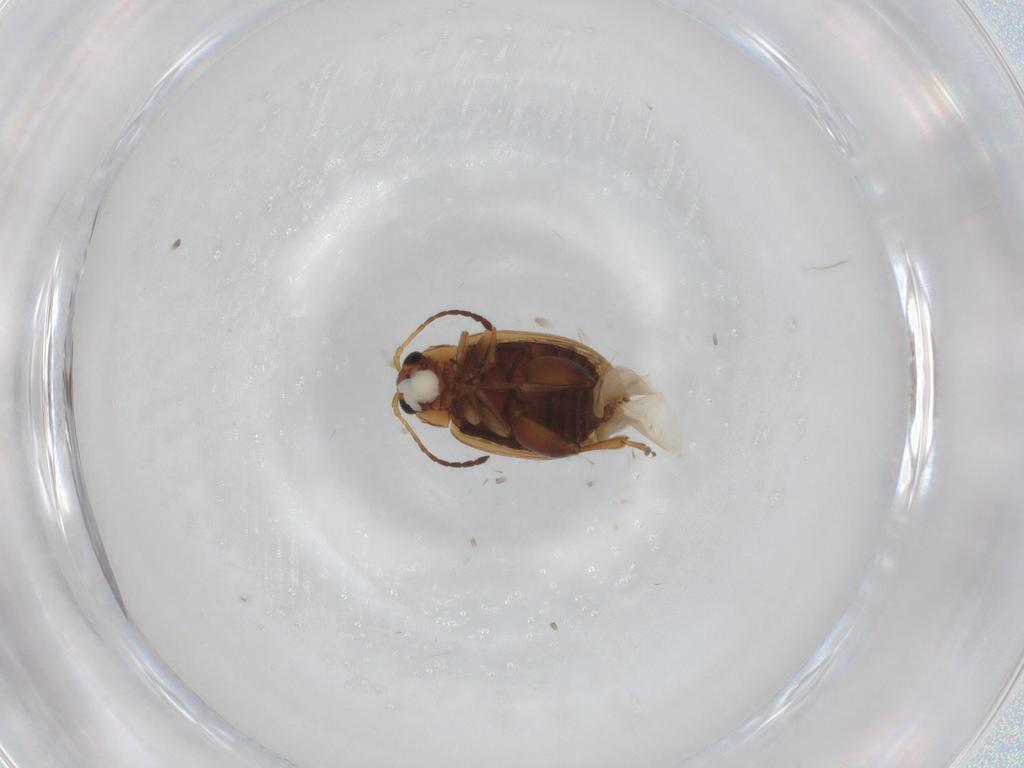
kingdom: Animalia
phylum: Arthropoda
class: Insecta
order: Coleoptera
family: Chrysomelidae
